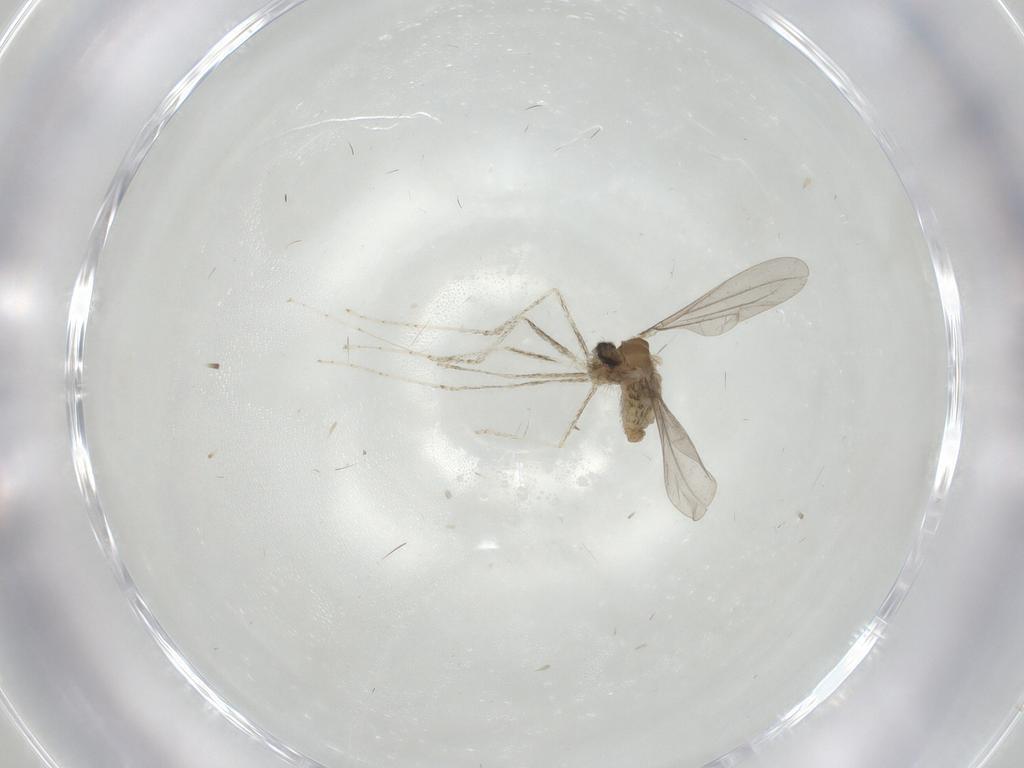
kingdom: Animalia
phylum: Arthropoda
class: Insecta
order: Diptera
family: Cecidomyiidae
